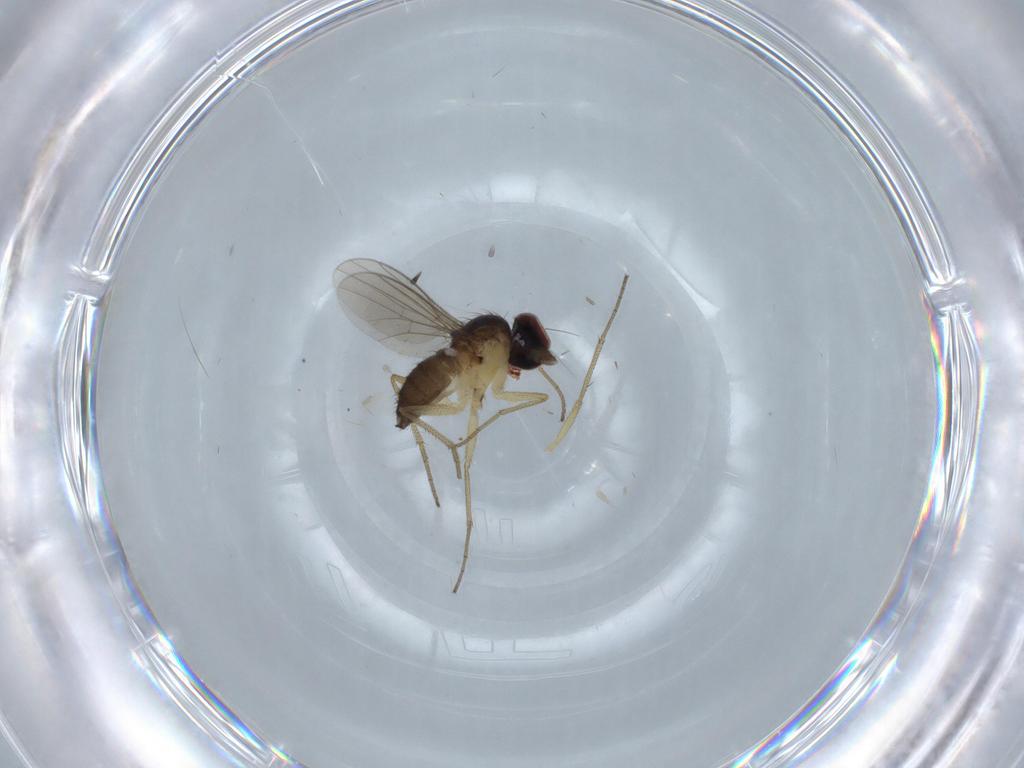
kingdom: Animalia
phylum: Arthropoda
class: Insecta
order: Diptera
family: Dolichopodidae
